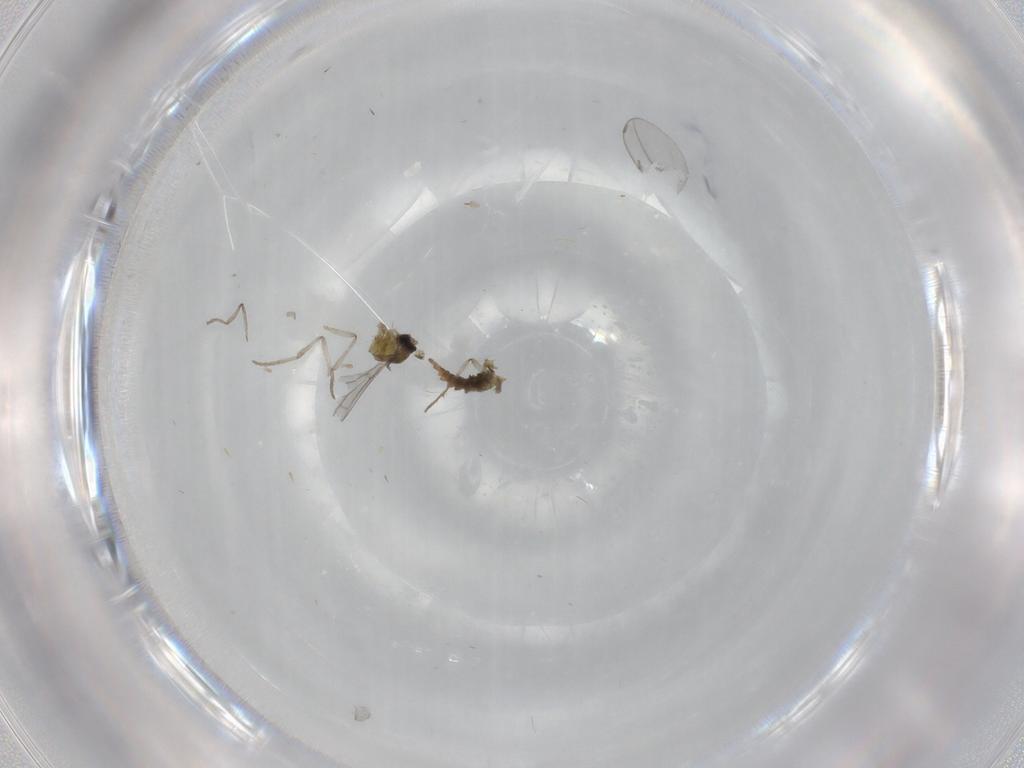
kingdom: Animalia
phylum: Arthropoda
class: Insecta
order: Diptera
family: Cecidomyiidae
